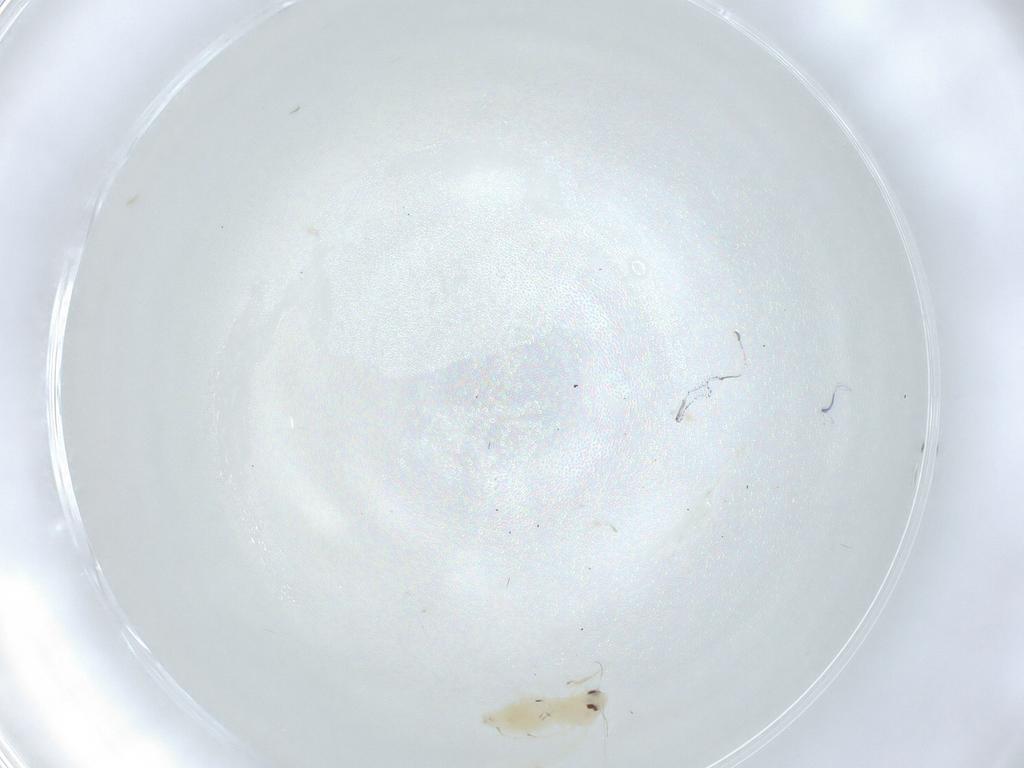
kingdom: Animalia
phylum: Arthropoda
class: Insecta
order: Hemiptera
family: Aleyrodidae
